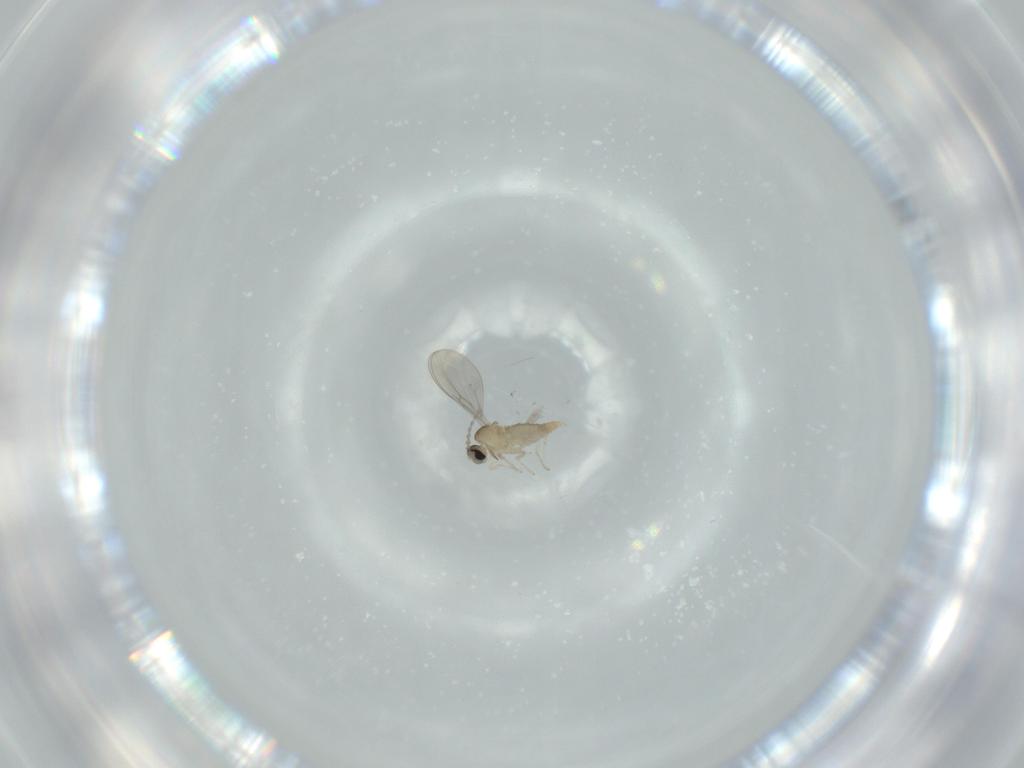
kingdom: Animalia
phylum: Arthropoda
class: Insecta
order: Diptera
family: Cecidomyiidae
